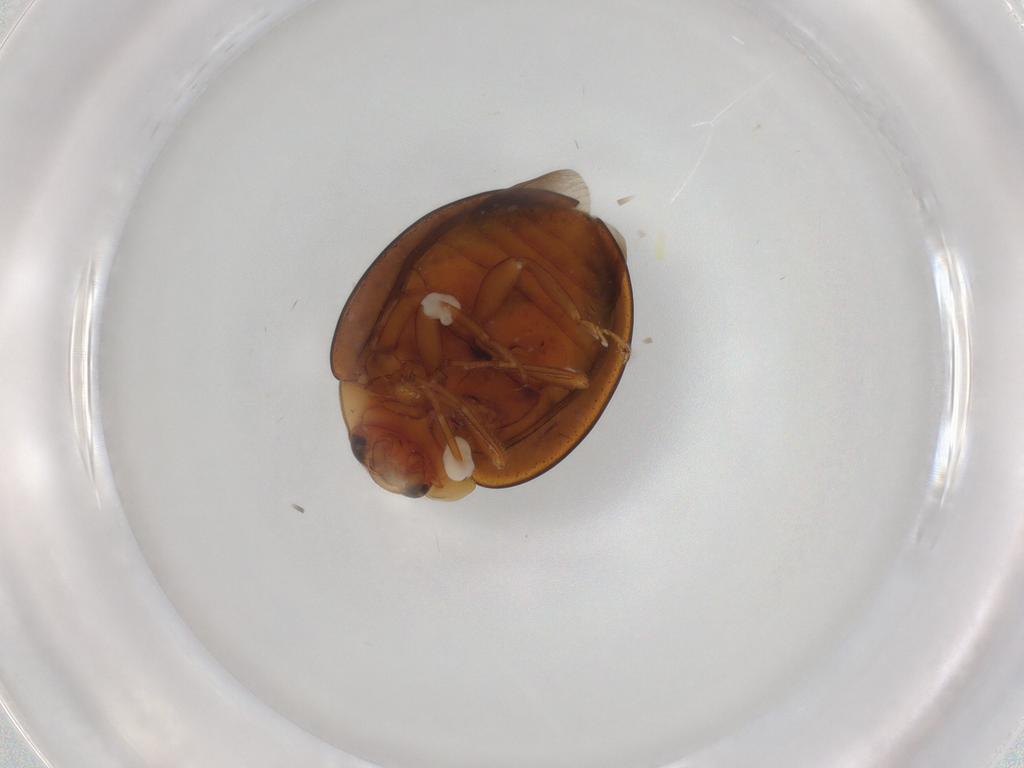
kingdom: Animalia
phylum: Arthropoda
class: Insecta
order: Coleoptera
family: Coccinellidae
